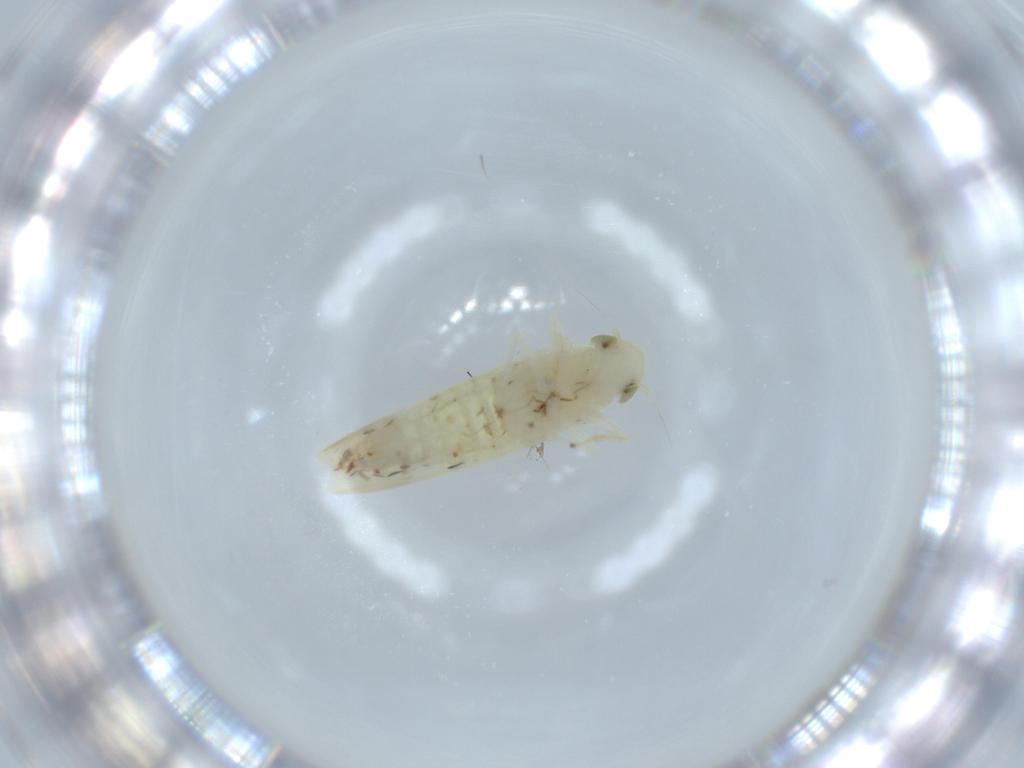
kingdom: Animalia
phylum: Arthropoda
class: Insecta
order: Hemiptera
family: Cicadellidae
